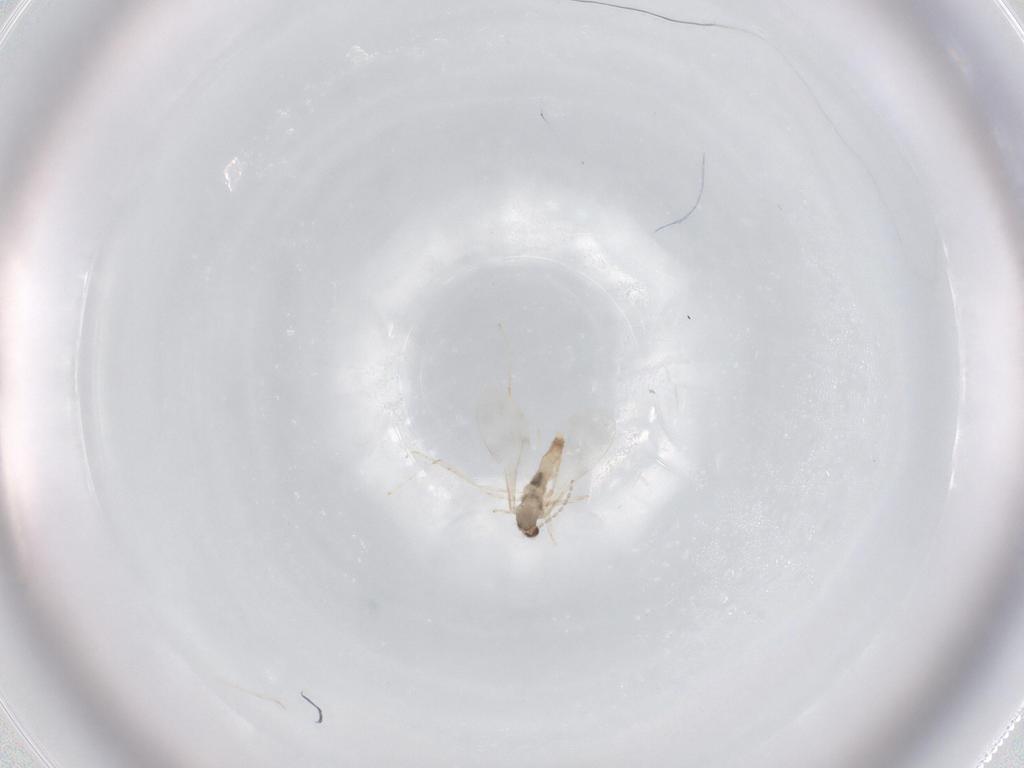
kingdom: Animalia
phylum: Arthropoda
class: Insecta
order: Diptera
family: Cecidomyiidae
